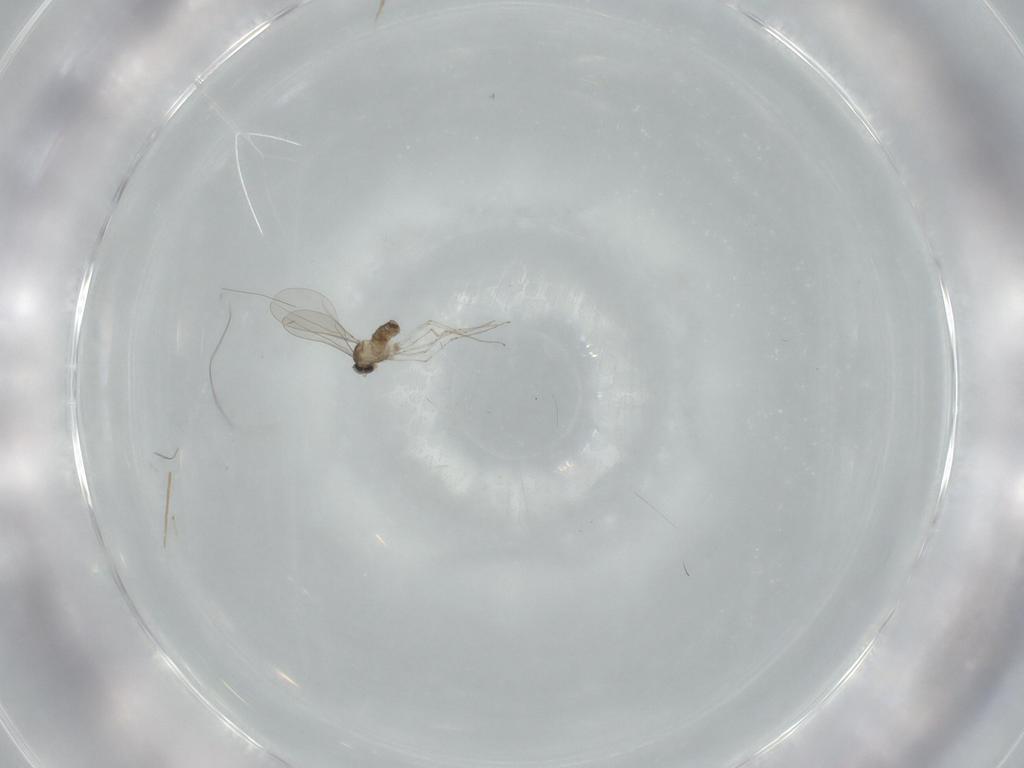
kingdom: Animalia
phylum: Arthropoda
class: Insecta
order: Diptera
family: Cecidomyiidae
